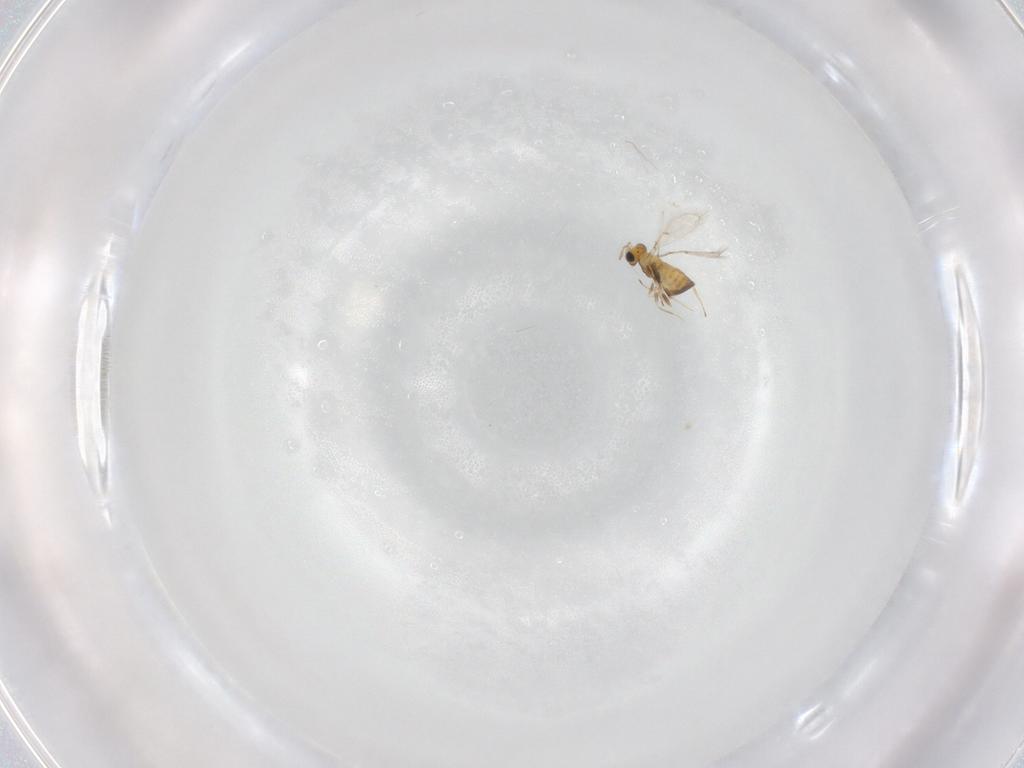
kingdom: Animalia
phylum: Arthropoda
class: Insecta
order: Hymenoptera
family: Trichogrammatidae
